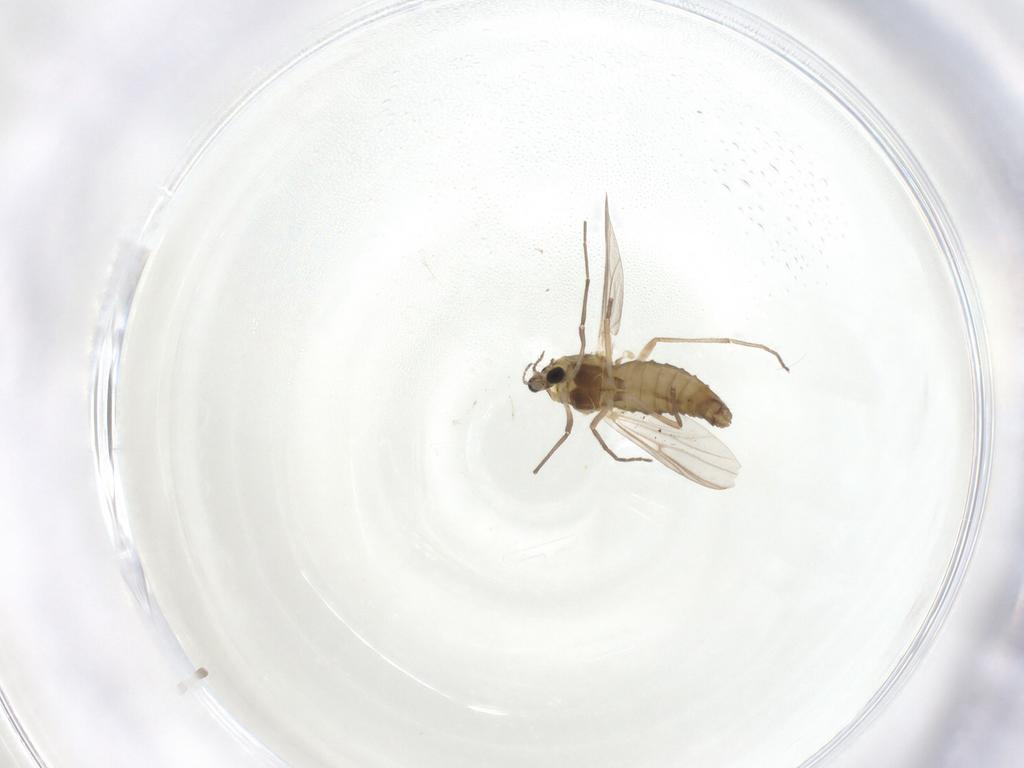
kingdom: Animalia
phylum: Arthropoda
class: Insecta
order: Diptera
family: Chironomidae
